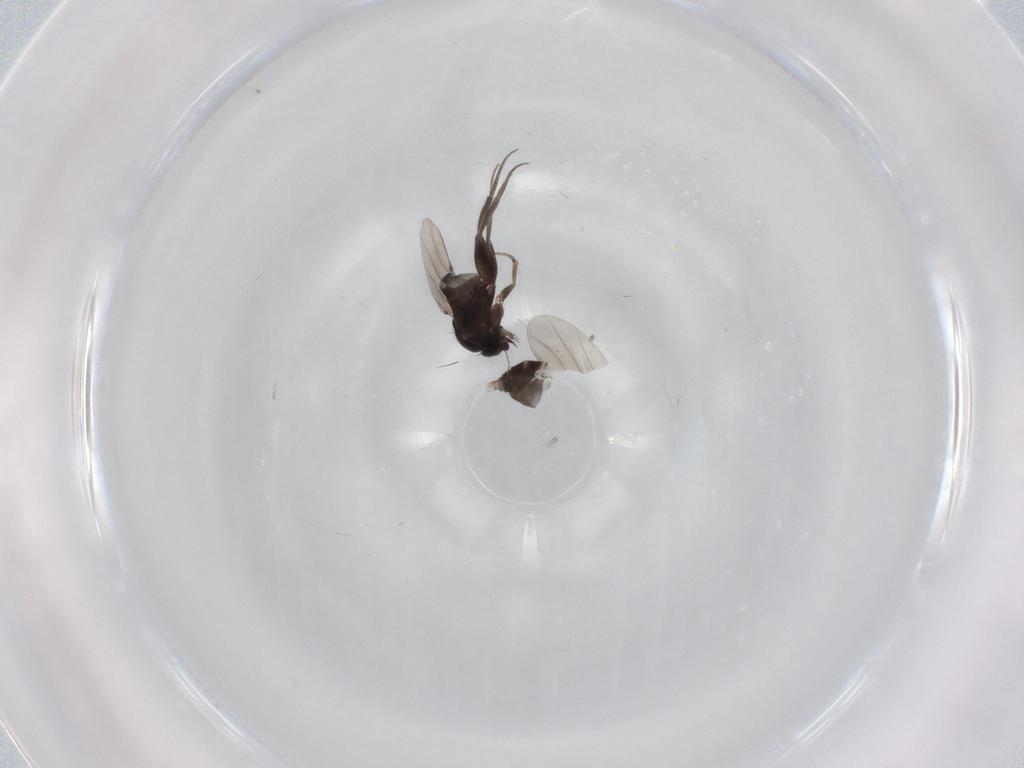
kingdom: Animalia
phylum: Arthropoda
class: Insecta
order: Diptera
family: Phoridae
